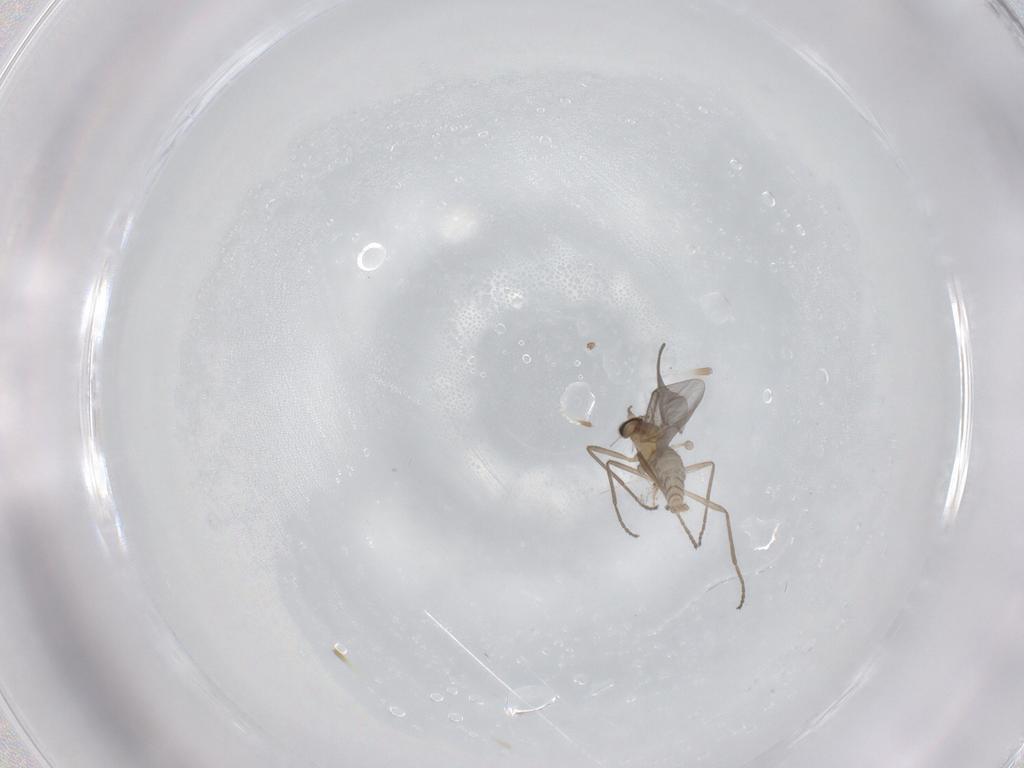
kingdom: Animalia
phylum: Arthropoda
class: Insecta
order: Diptera
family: Cecidomyiidae
